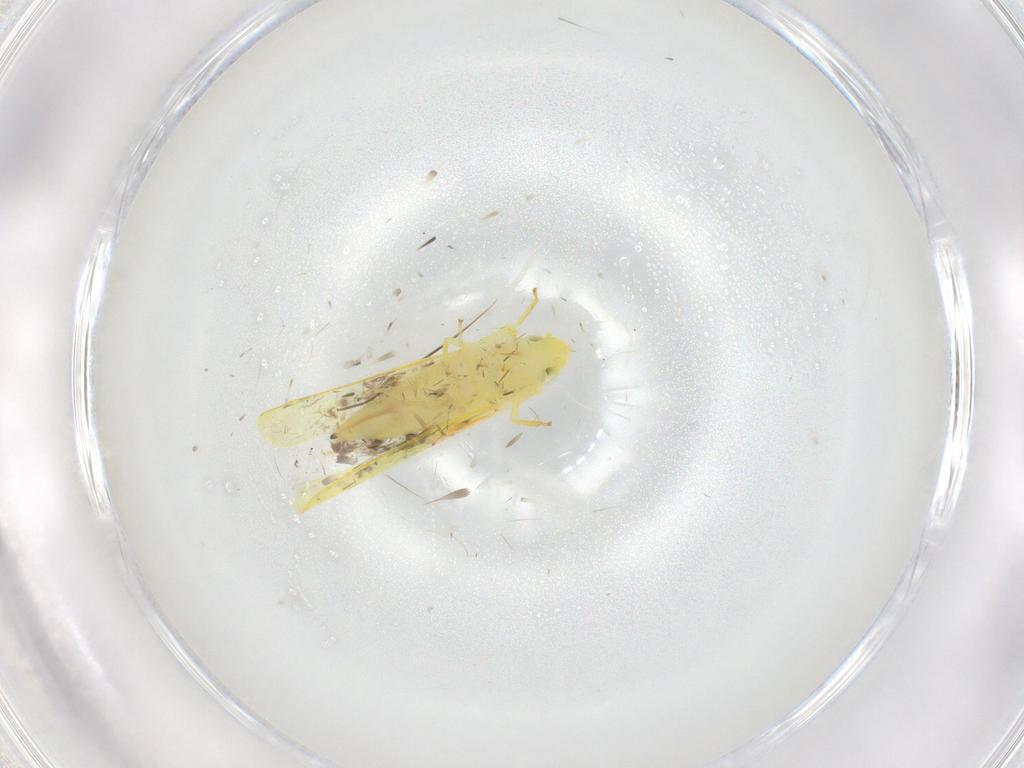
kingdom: Animalia
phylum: Arthropoda
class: Insecta
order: Hemiptera
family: Cicadellidae
